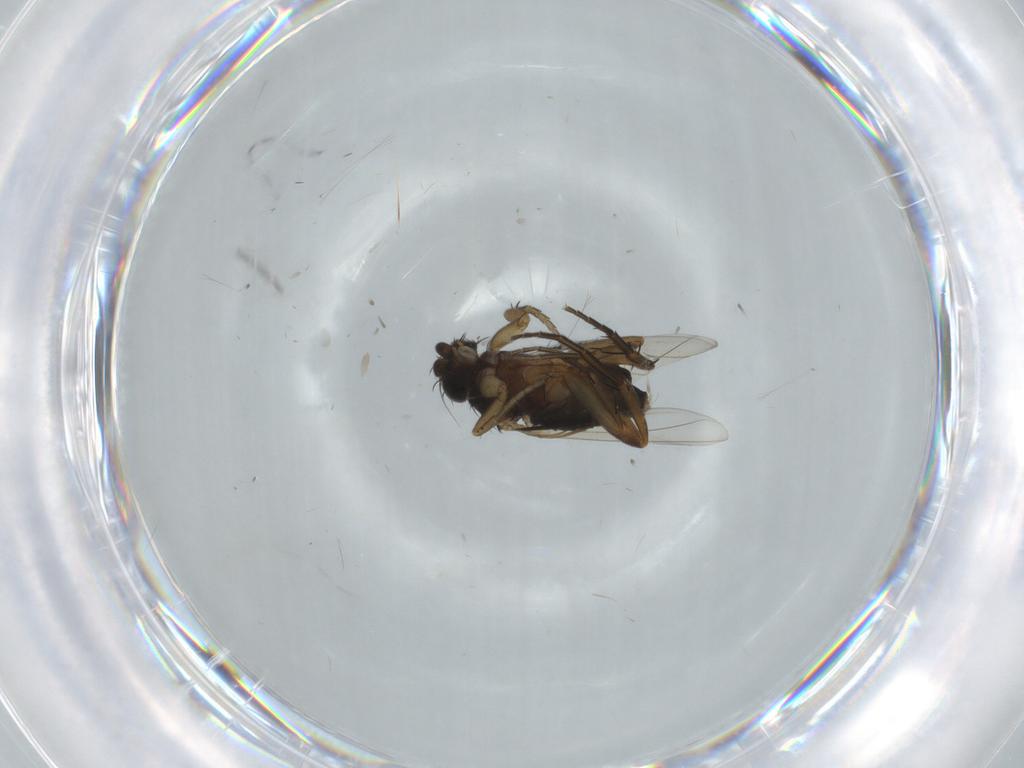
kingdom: Animalia
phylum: Arthropoda
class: Insecta
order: Diptera
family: Phoridae
